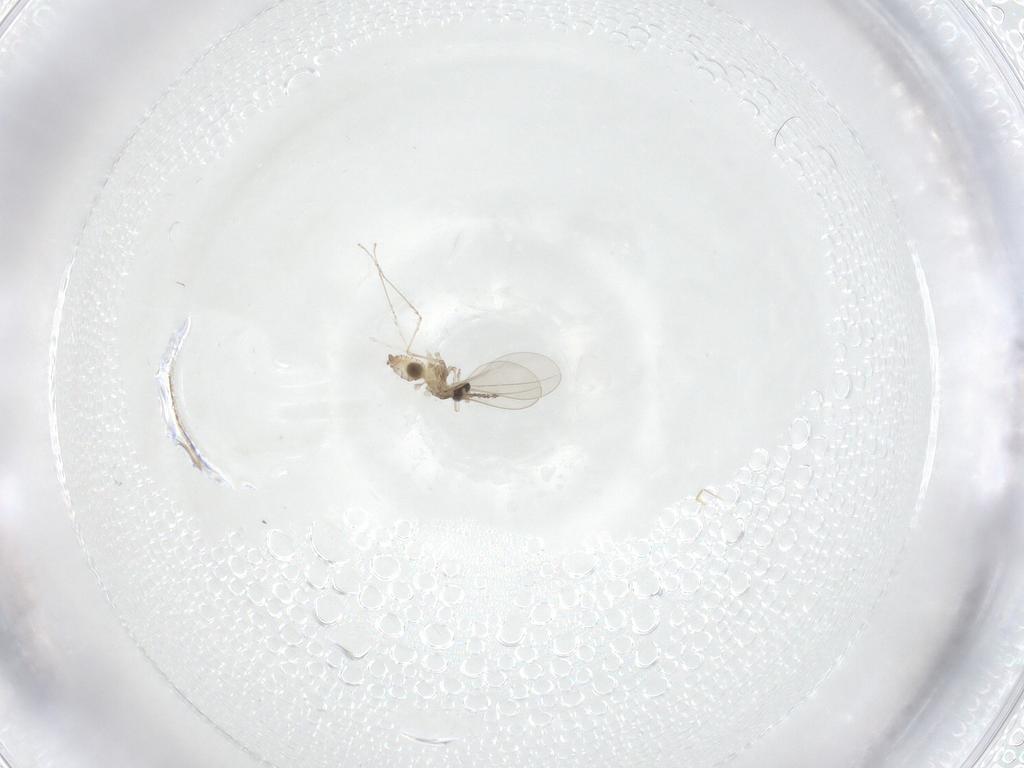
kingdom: Animalia
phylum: Arthropoda
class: Insecta
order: Diptera
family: Cecidomyiidae
